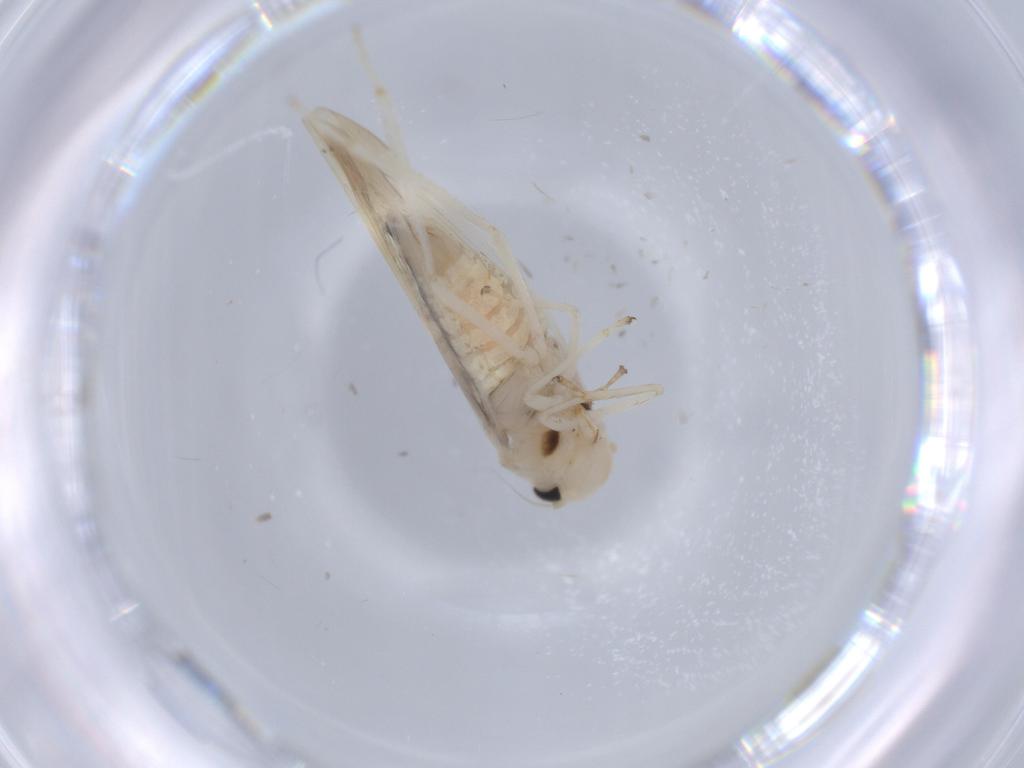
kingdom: Animalia
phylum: Arthropoda
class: Insecta
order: Hemiptera
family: Cicadellidae
